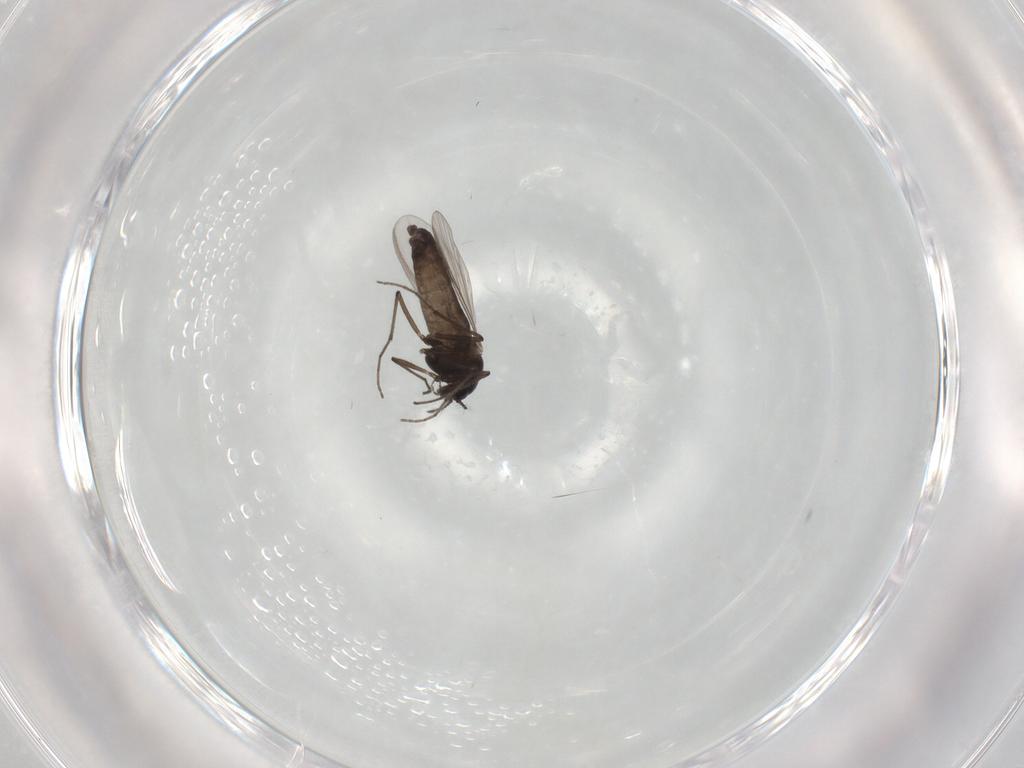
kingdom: Animalia
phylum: Arthropoda
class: Insecta
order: Diptera
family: Chironomidae
